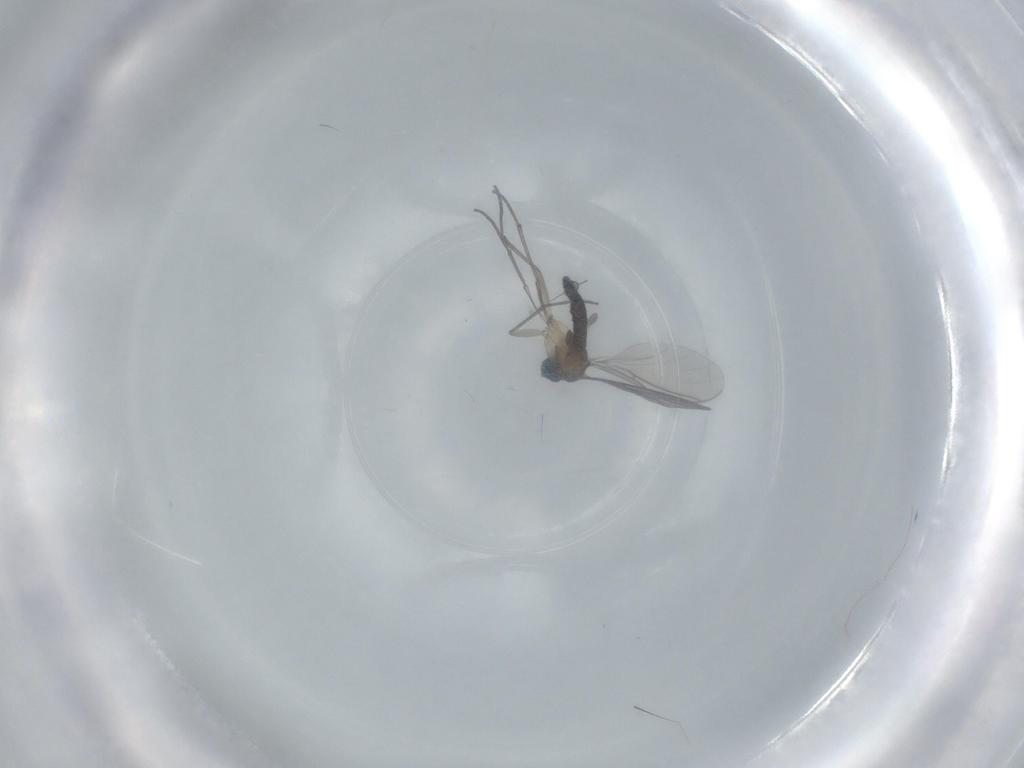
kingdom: Animalia
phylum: Arthropoda
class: Insecta
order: Diptera
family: Sciaridae
